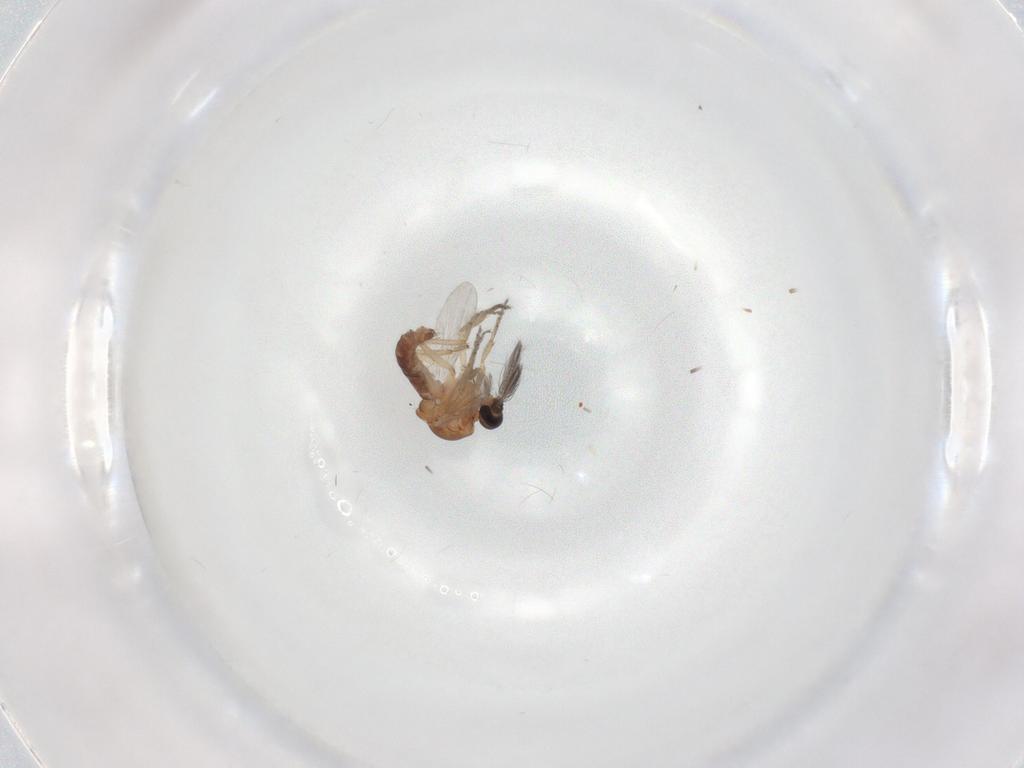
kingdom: Animalia
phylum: Arthropoda
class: Insecta
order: Diptera
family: Ceratopogonidae
